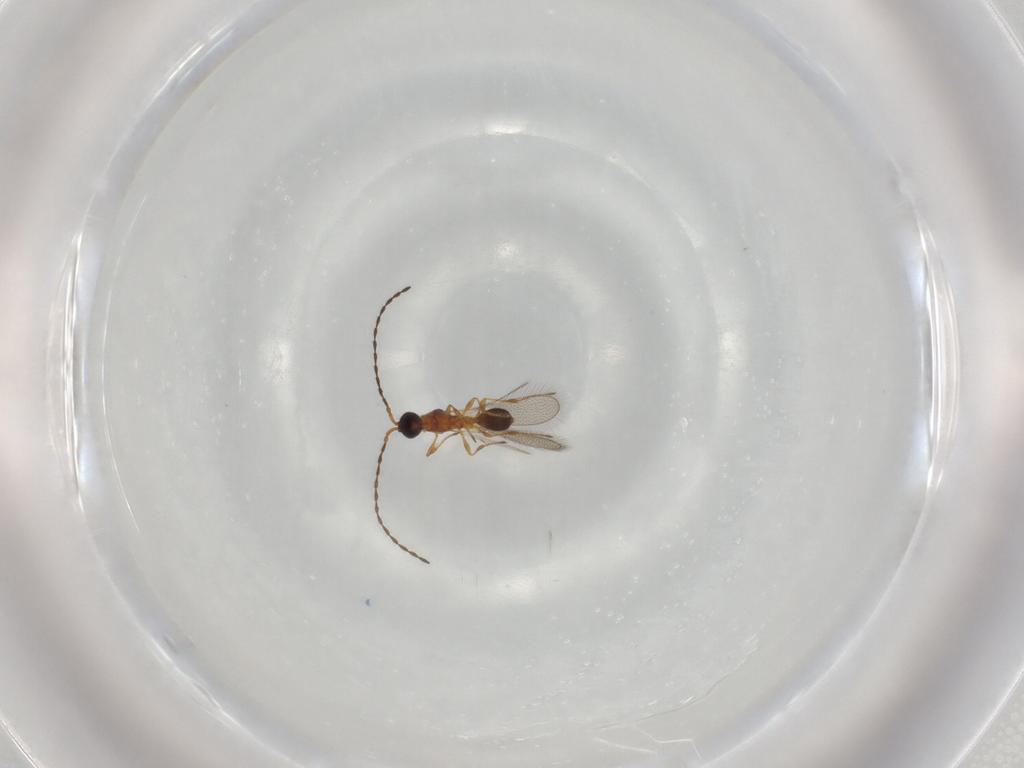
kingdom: Animalia
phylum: Arthropoda
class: Insecta
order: Hymenoptera
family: Diapriidae
